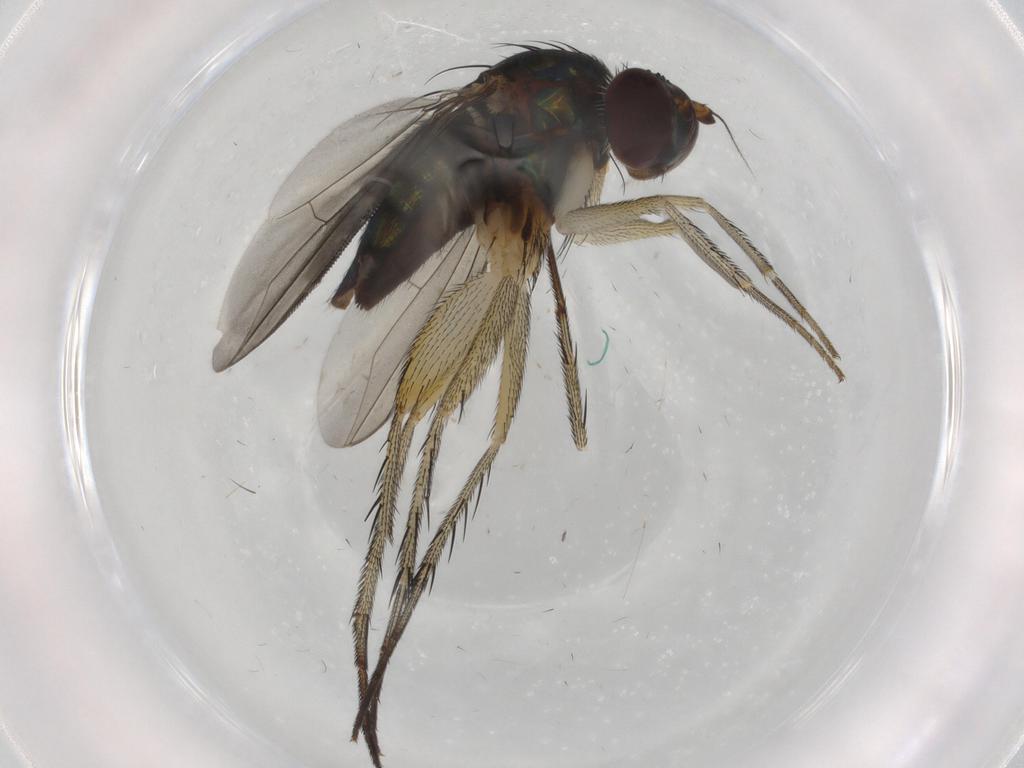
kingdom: Animalia
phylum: Arthropoda
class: Insecta
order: Diptera
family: Dolichopodidae
